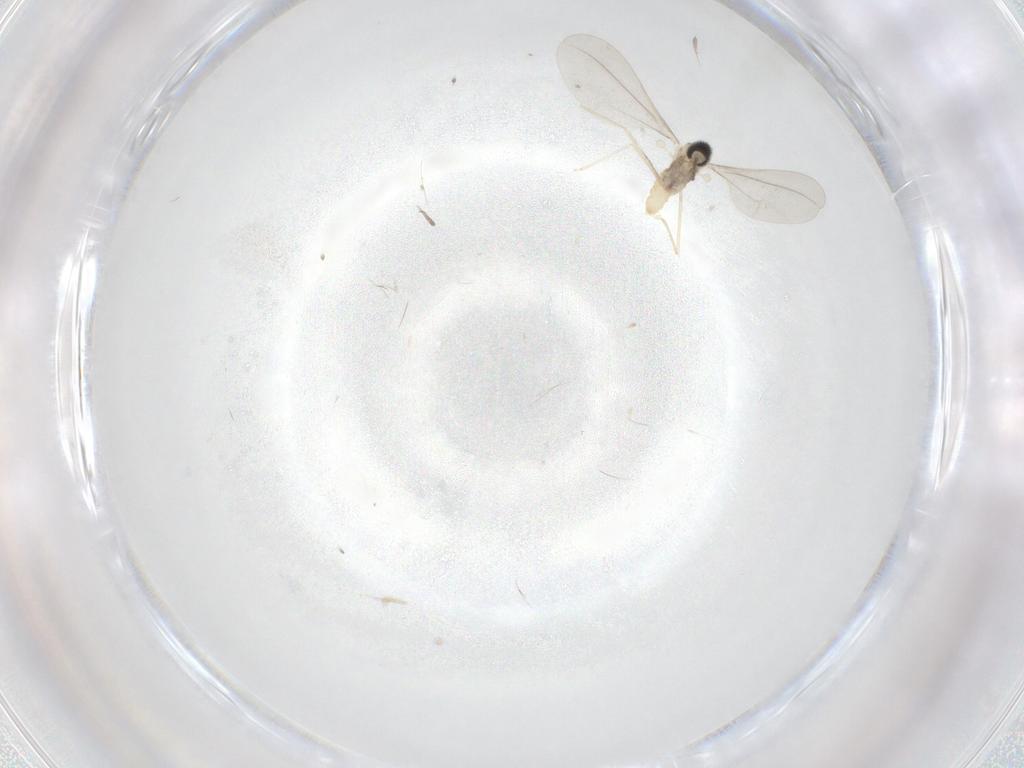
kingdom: Animalia
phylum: Arthropoda
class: Insecta
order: Diptera
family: Cecidomyiidae
